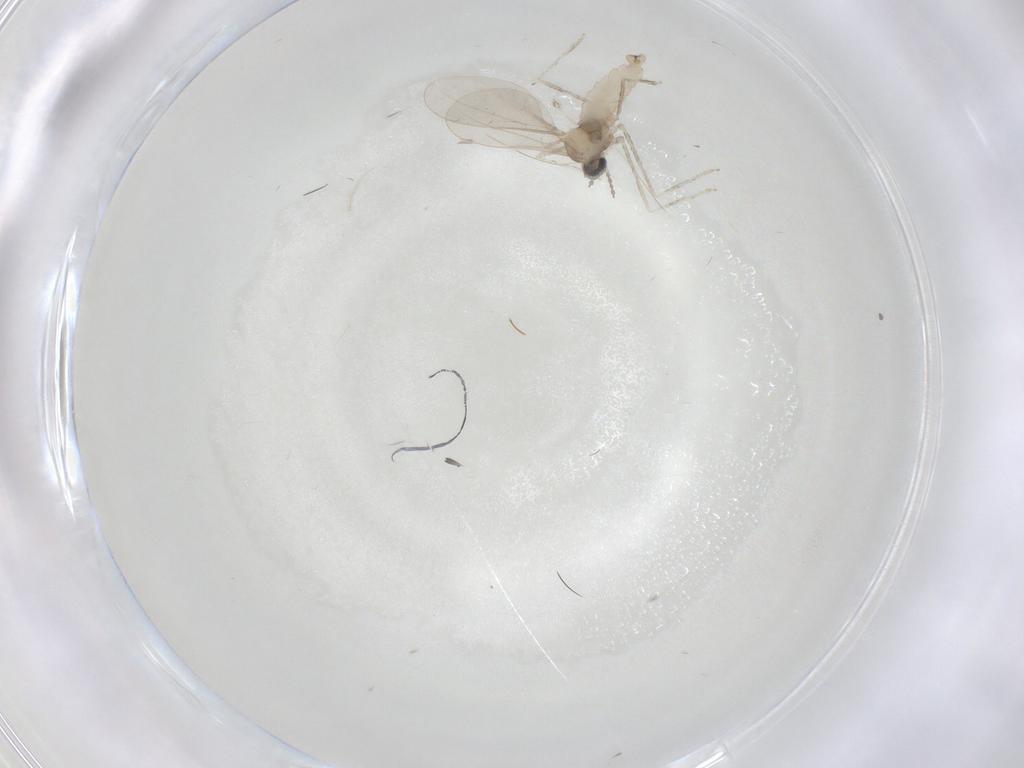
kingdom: Animalia
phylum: Arthropoda
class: Insecta
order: Diptera
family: Cecidomyiidae
